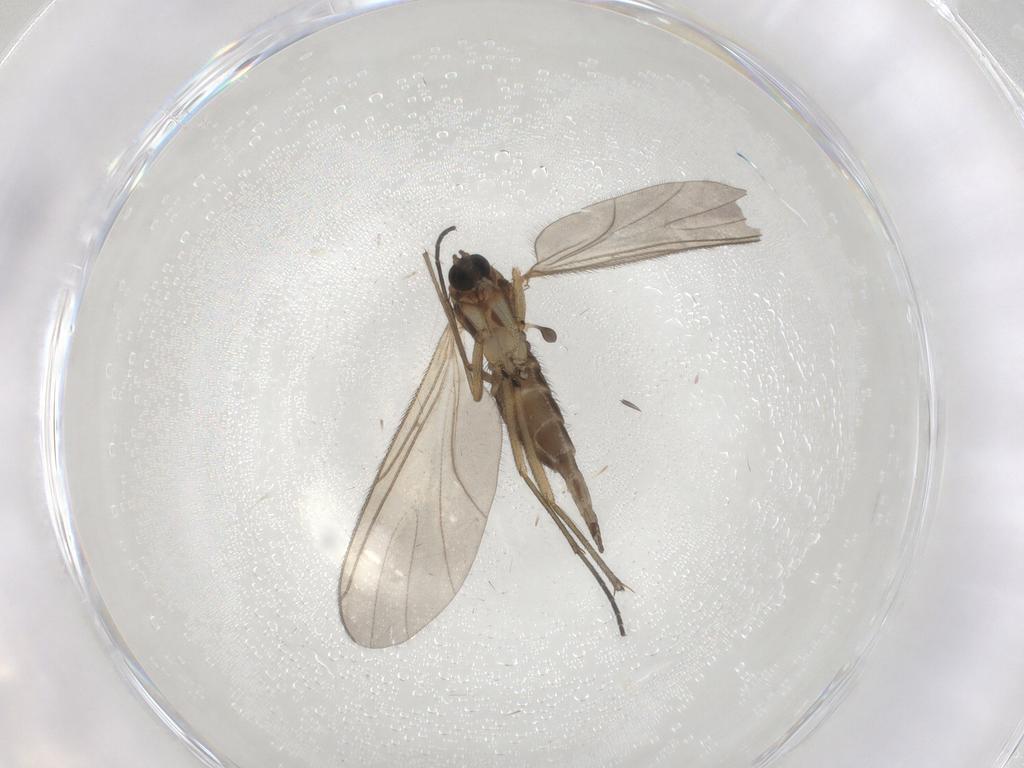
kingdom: Animalia
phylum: Arthropoda
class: Insecta
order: Diptera
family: Sciaridae
